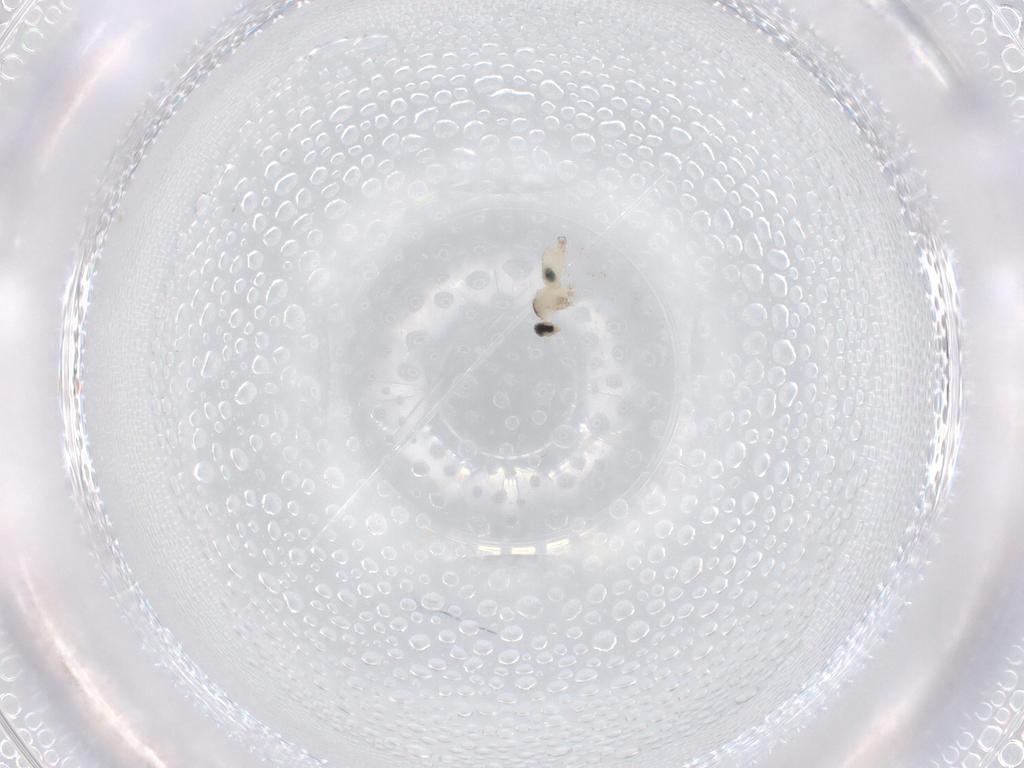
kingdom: Animalia
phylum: Arthropoda
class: Insecta
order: Diptera
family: Cecidomyiidae
